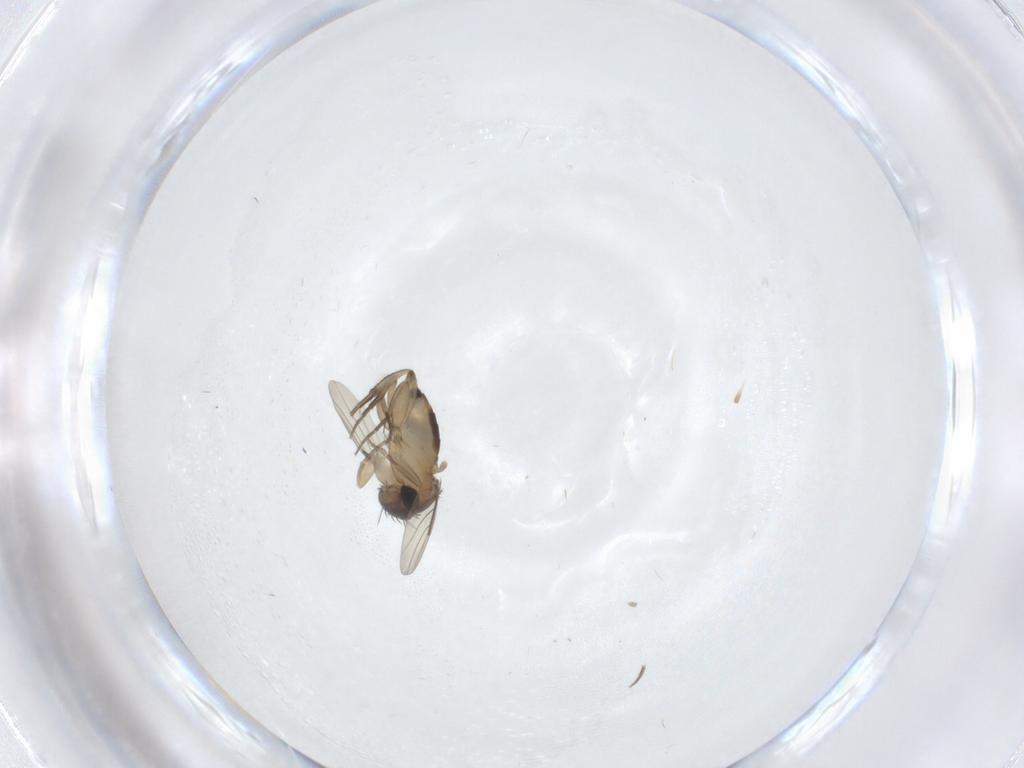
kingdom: Animalia
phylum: Arthropoda
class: Insecta
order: Diptera
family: Phoridae
